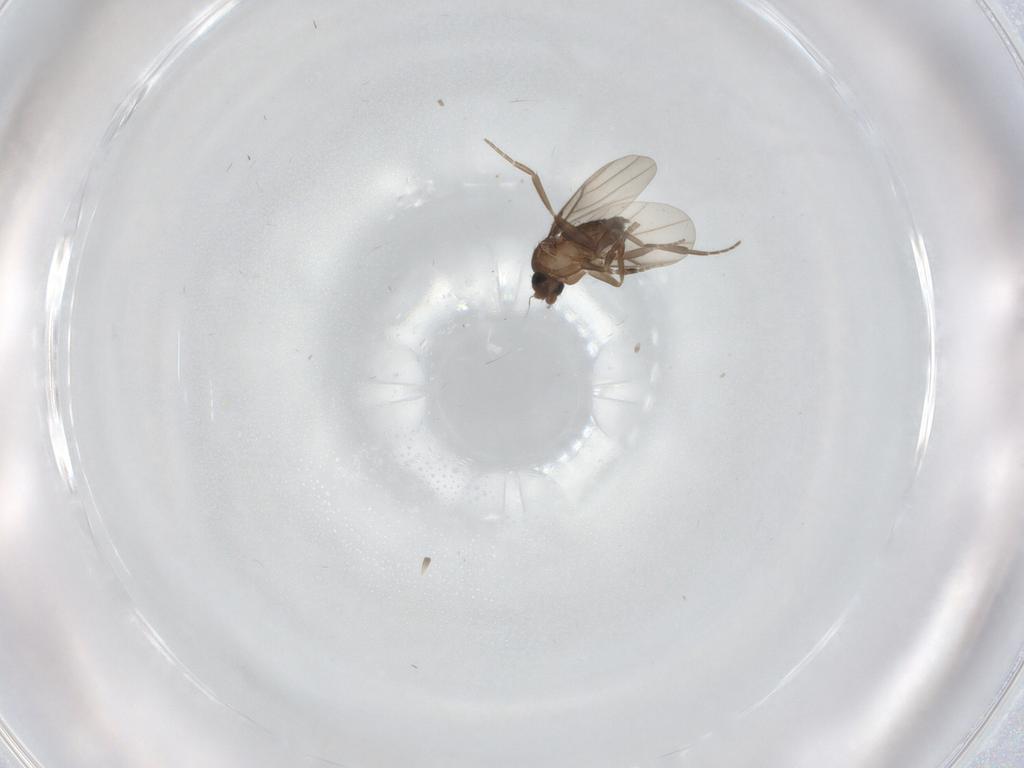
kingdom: Animalia
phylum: Arthropoda
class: Insecta
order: Diptera
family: Phoridae
